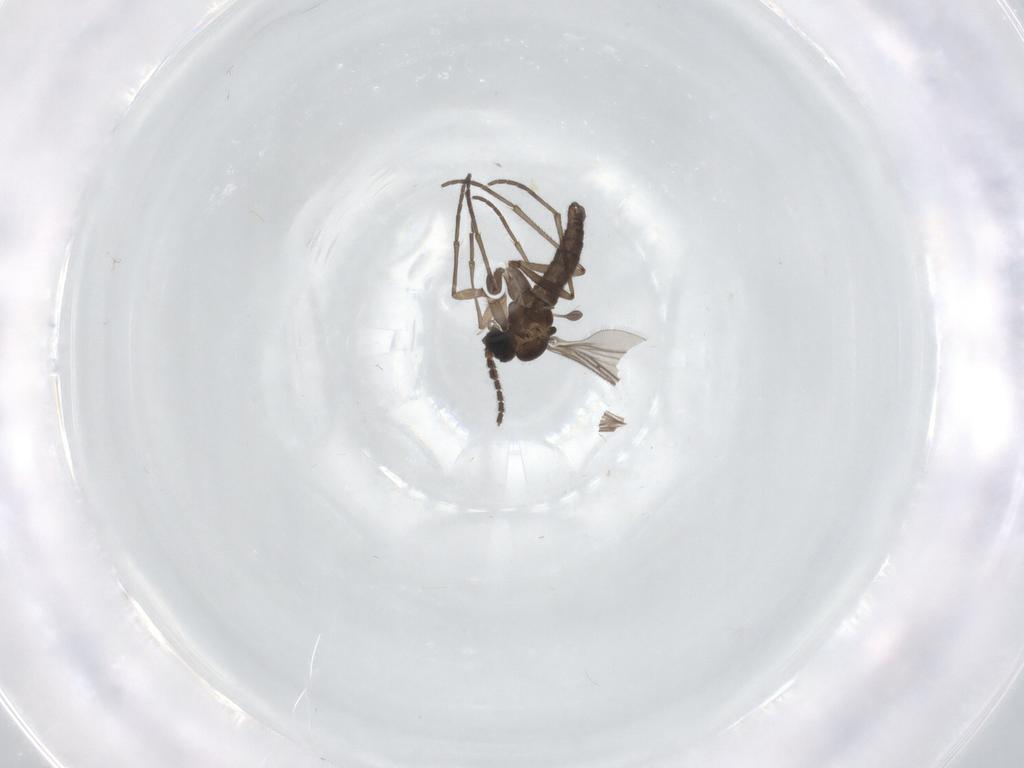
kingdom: Animalia
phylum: Arthropoda
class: Insecta
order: Diptera
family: Sciaridae
